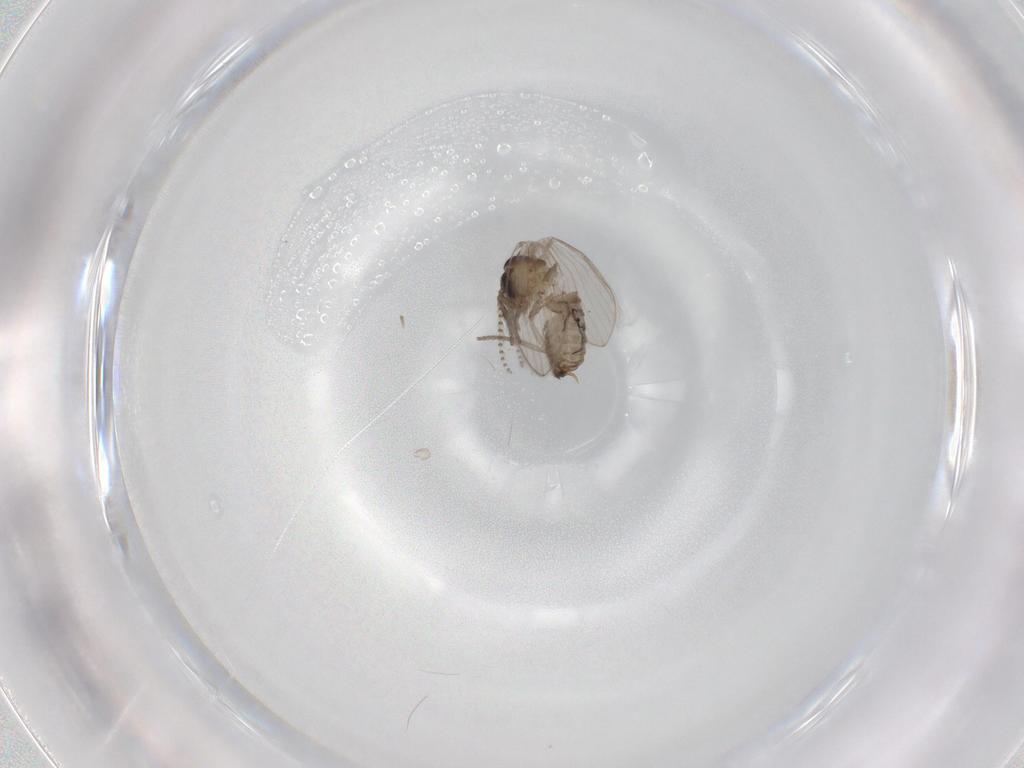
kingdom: Animalia
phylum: Arthropoda
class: Insecta
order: Diptera
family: Psychodidae
